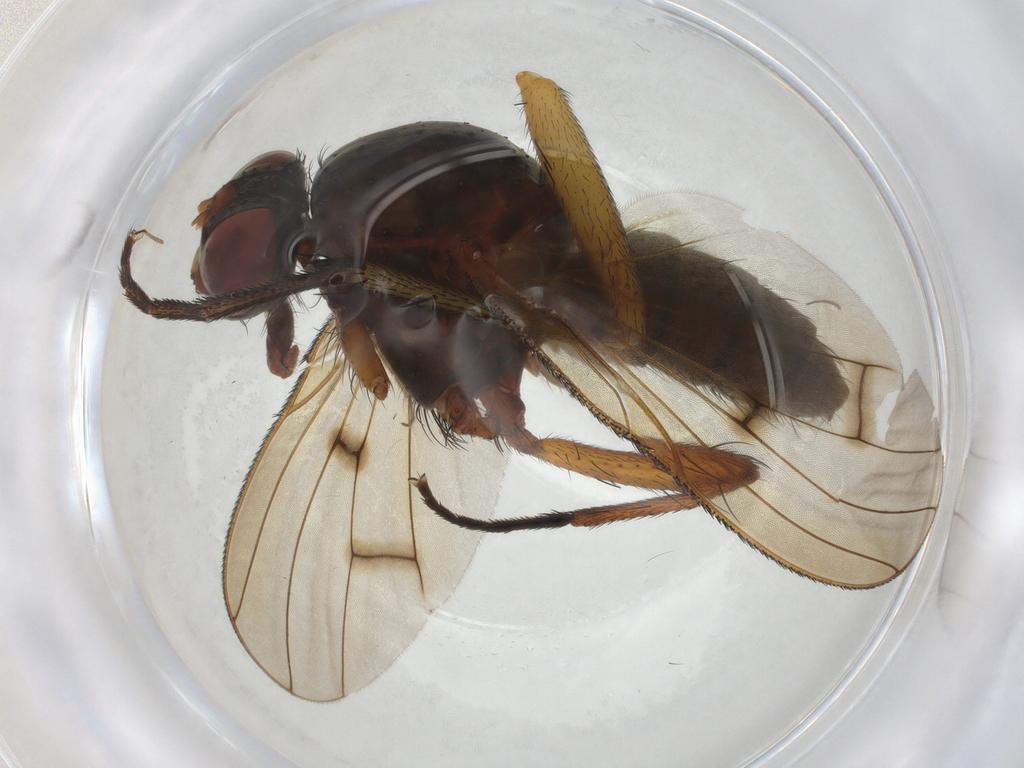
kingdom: Animalia
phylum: Arthropoda
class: Insecta
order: Diptera
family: Anthomyiidae
